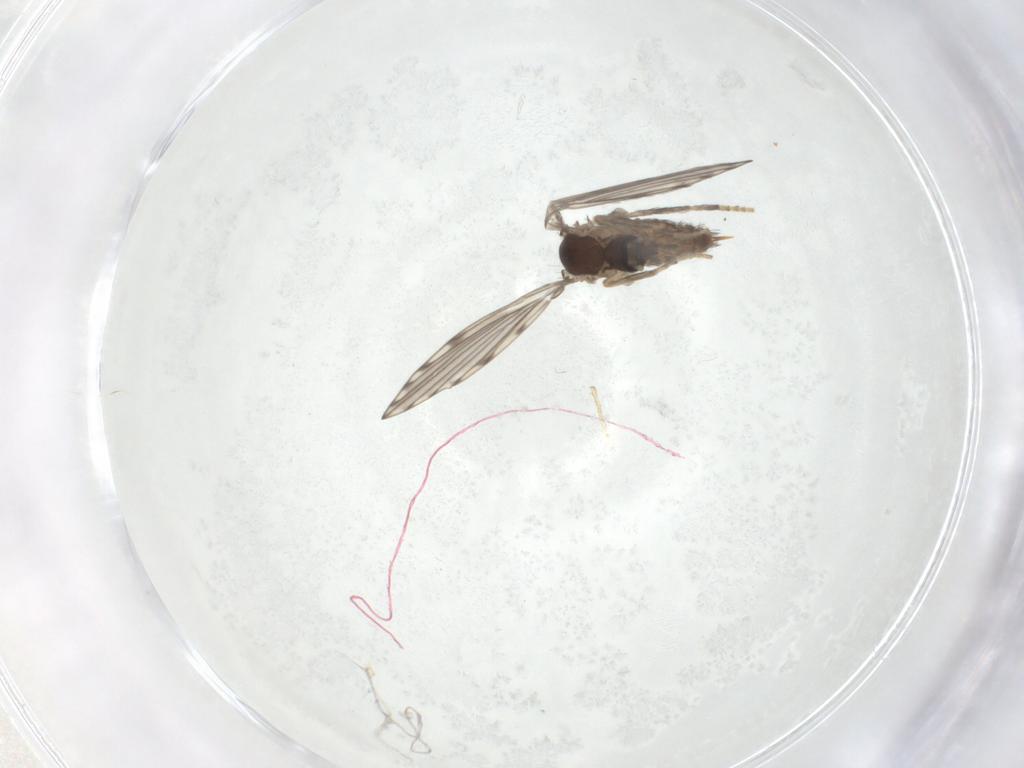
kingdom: Animalia
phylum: Arthropoda
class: Insecta
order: Diptera
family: Psychodidae
